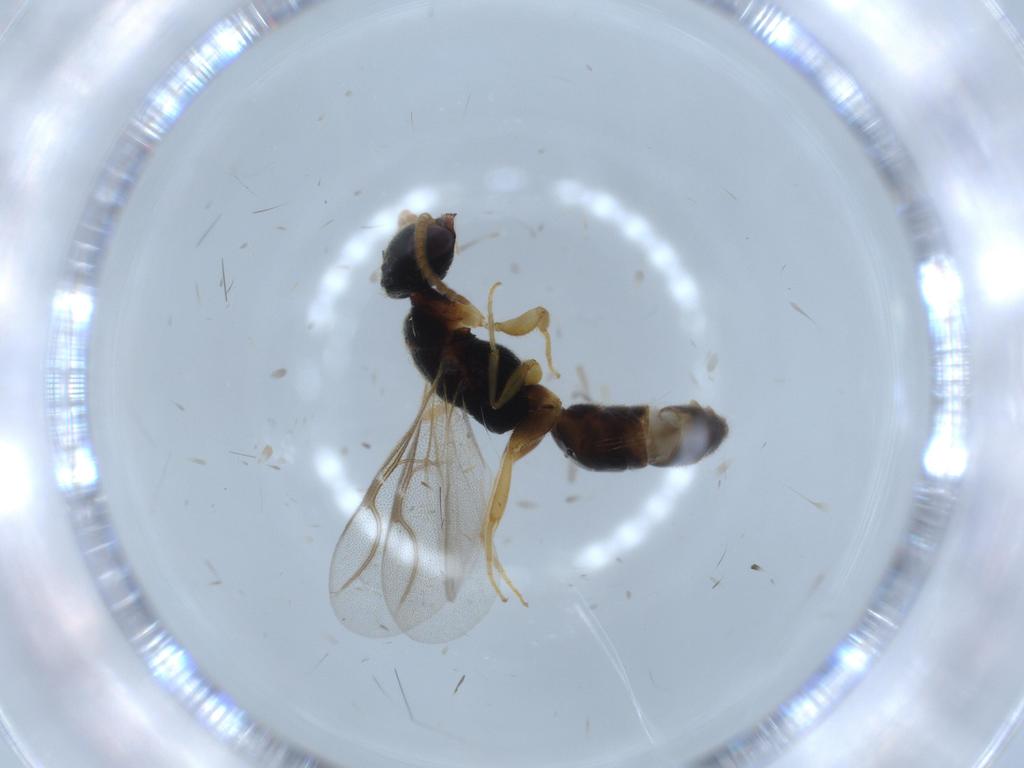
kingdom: Animalia
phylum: Arthropoda
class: Insecta
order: Hymenoptera
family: Bethylidae
